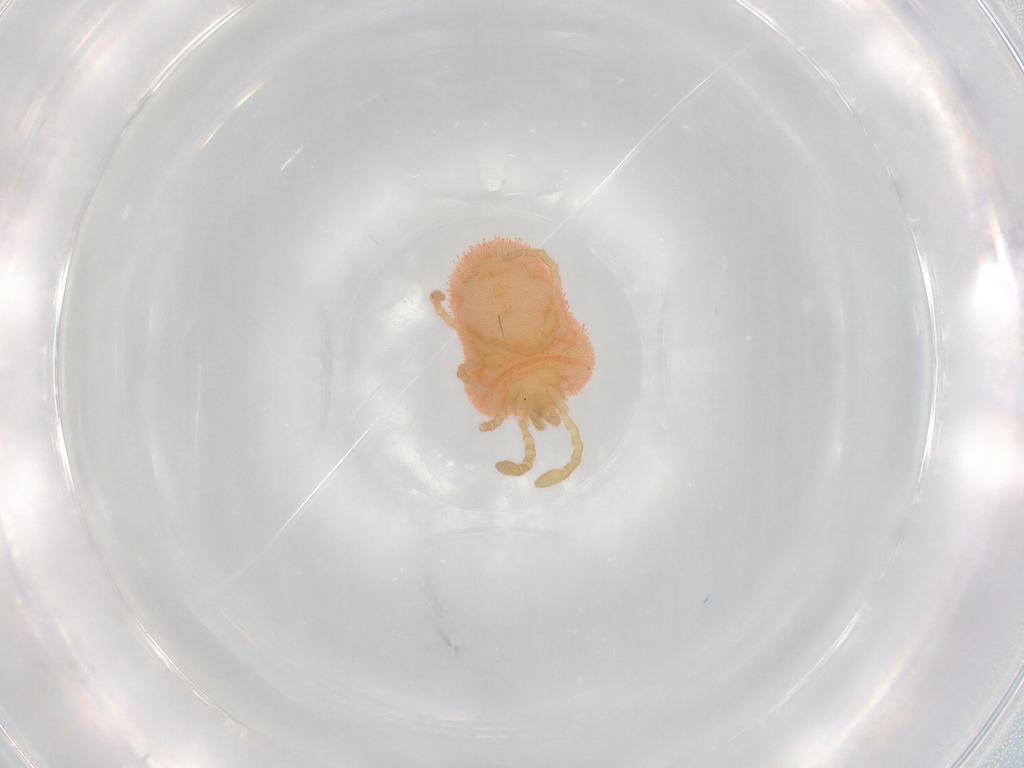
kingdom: Animalia
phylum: Arthropoda
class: Arachnida
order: Trombidiformes
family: Trombidiidae
